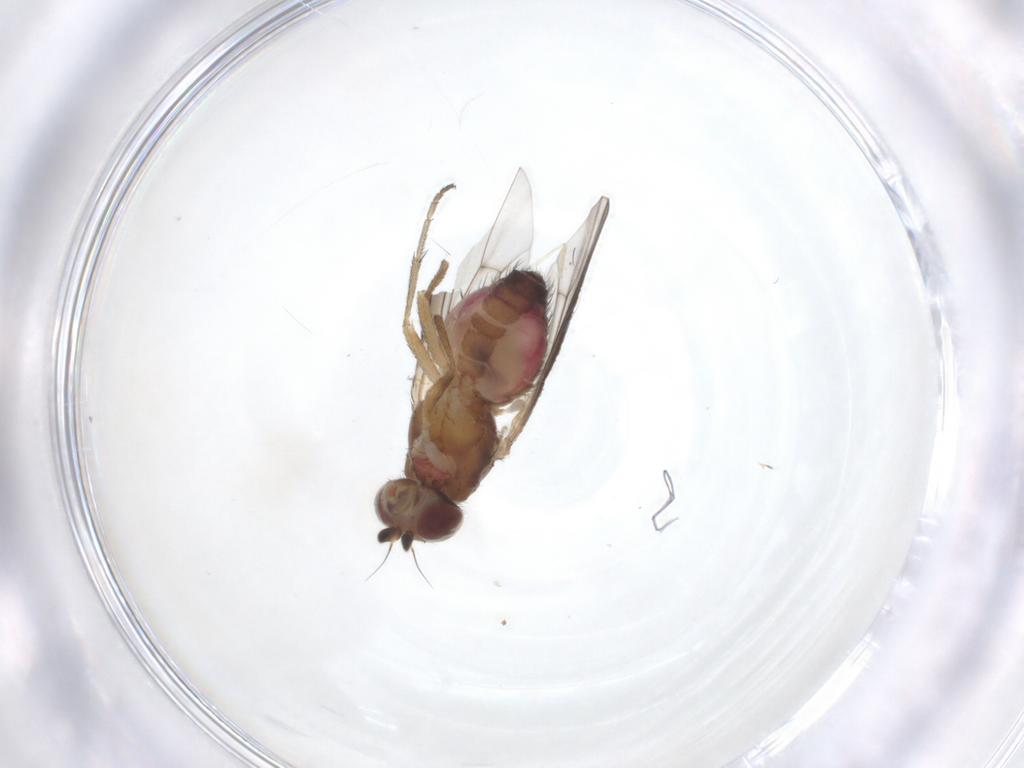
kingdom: Animalia
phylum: Arthropoda
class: Insecta
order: Diptera
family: Heleomyzidae
